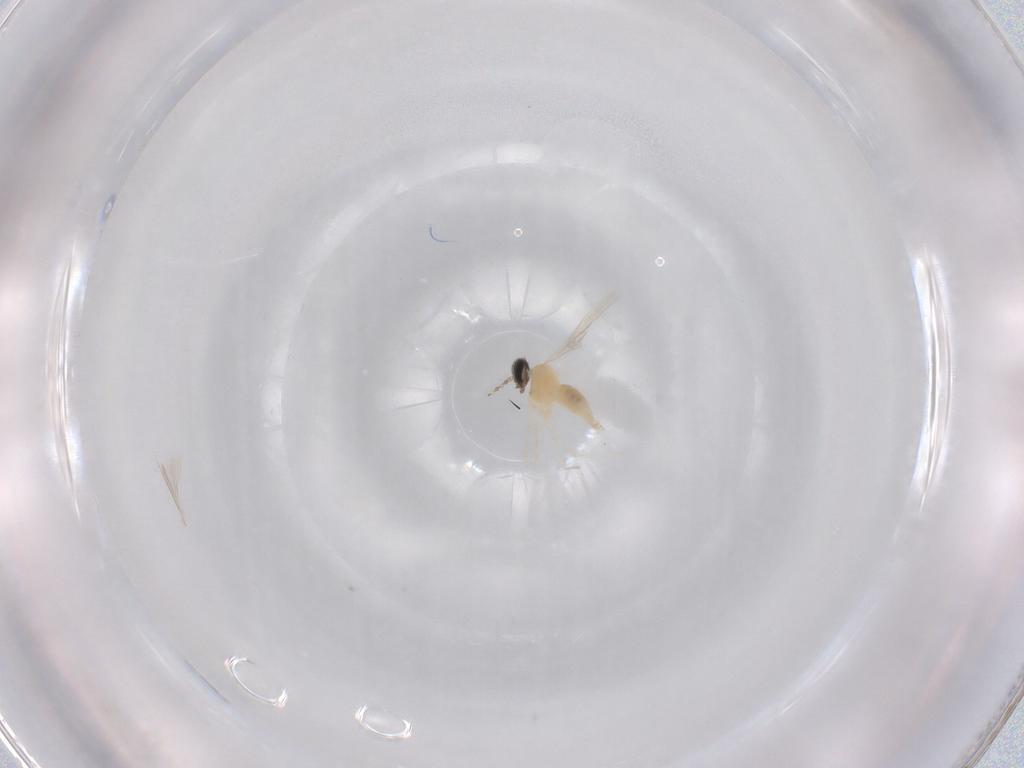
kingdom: Animalia
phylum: Arthropoda
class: Insecta
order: Diptera
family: Cecidomyiidae
